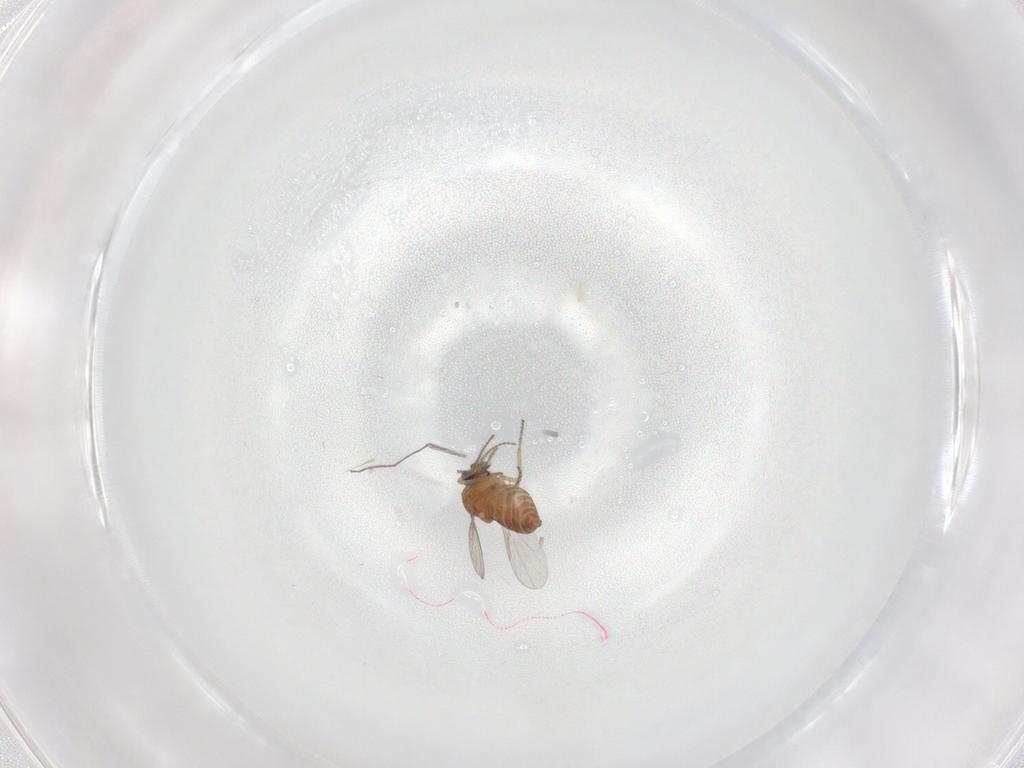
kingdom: Animalia
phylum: Arthropoda
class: Insecta
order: Diptera
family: Ceratopogonidae
